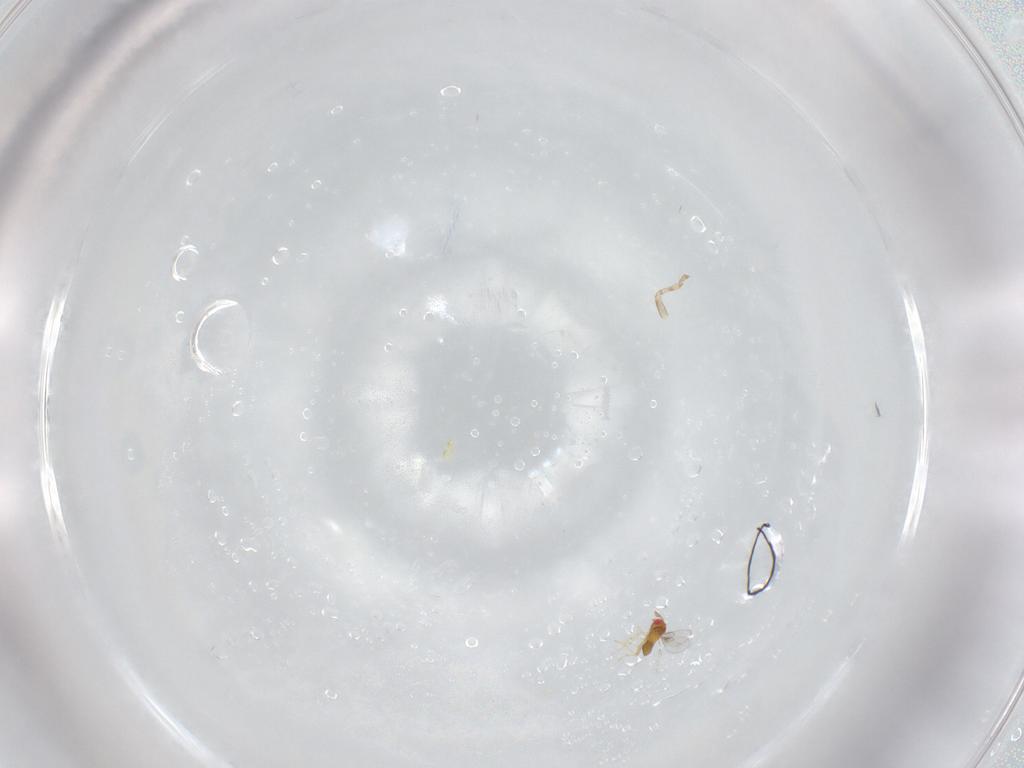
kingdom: Animalia
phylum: Arthropoda
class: Insecta
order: Hymenoptera
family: Trichogrammatidae
